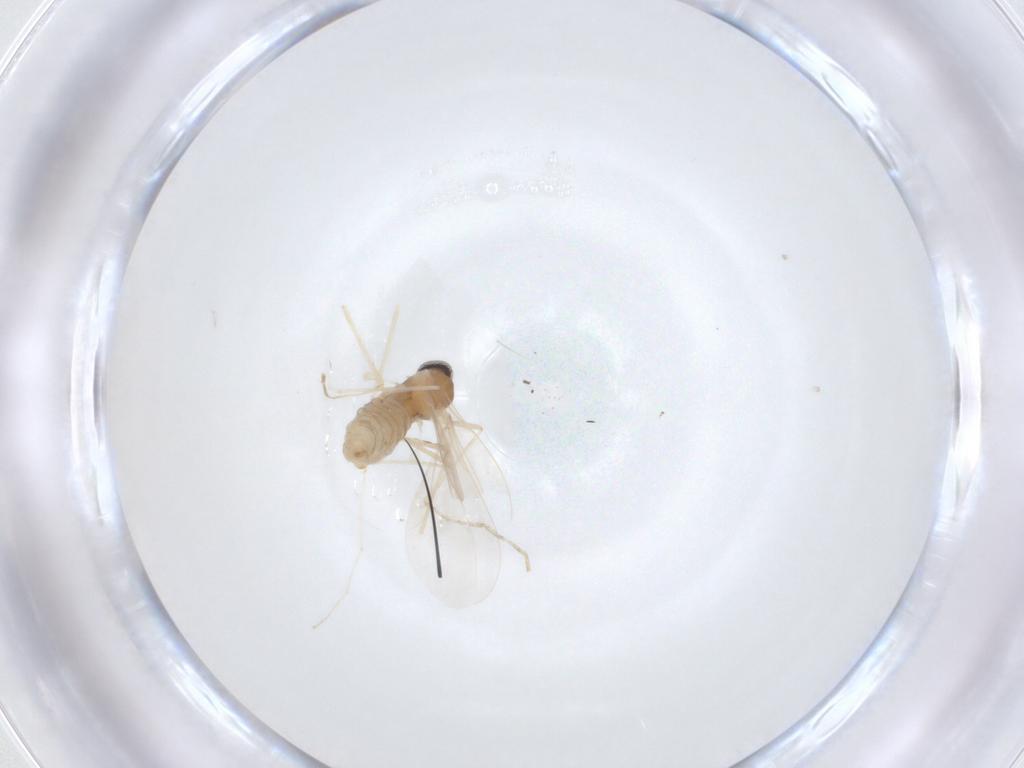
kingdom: Animalia
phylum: Arthropoda
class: Insecta
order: Diptera
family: Cecidomyiidae
